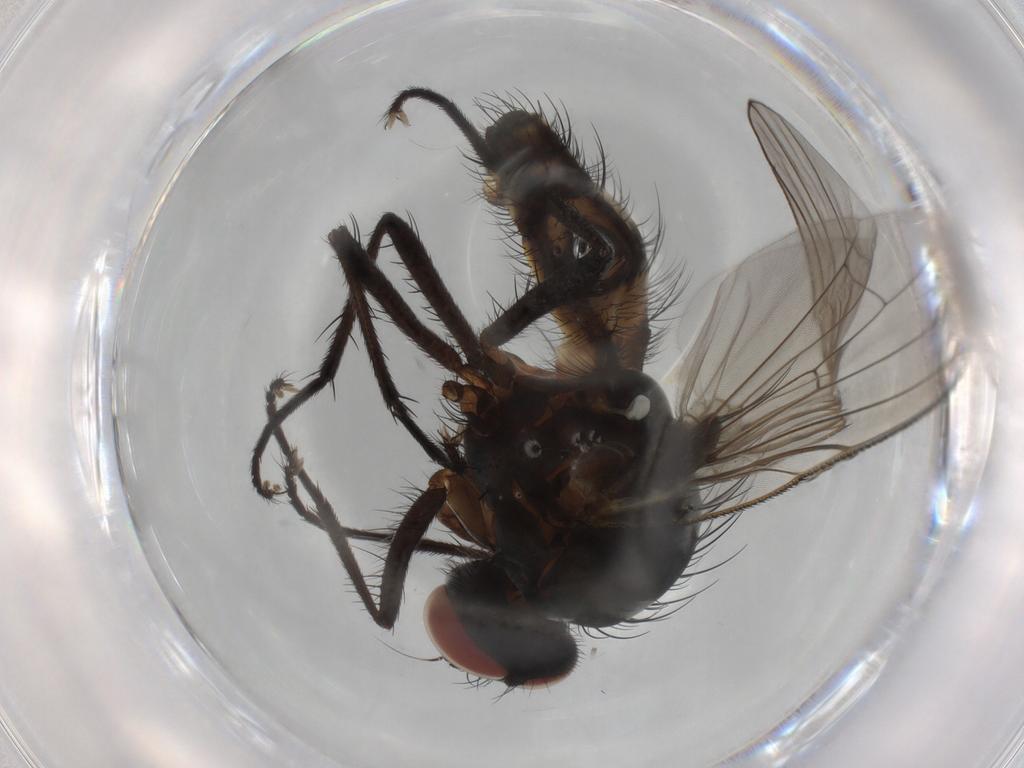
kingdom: Animalia
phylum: Arthropoda
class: Insecta
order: Diptera
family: Anthomyiidae
